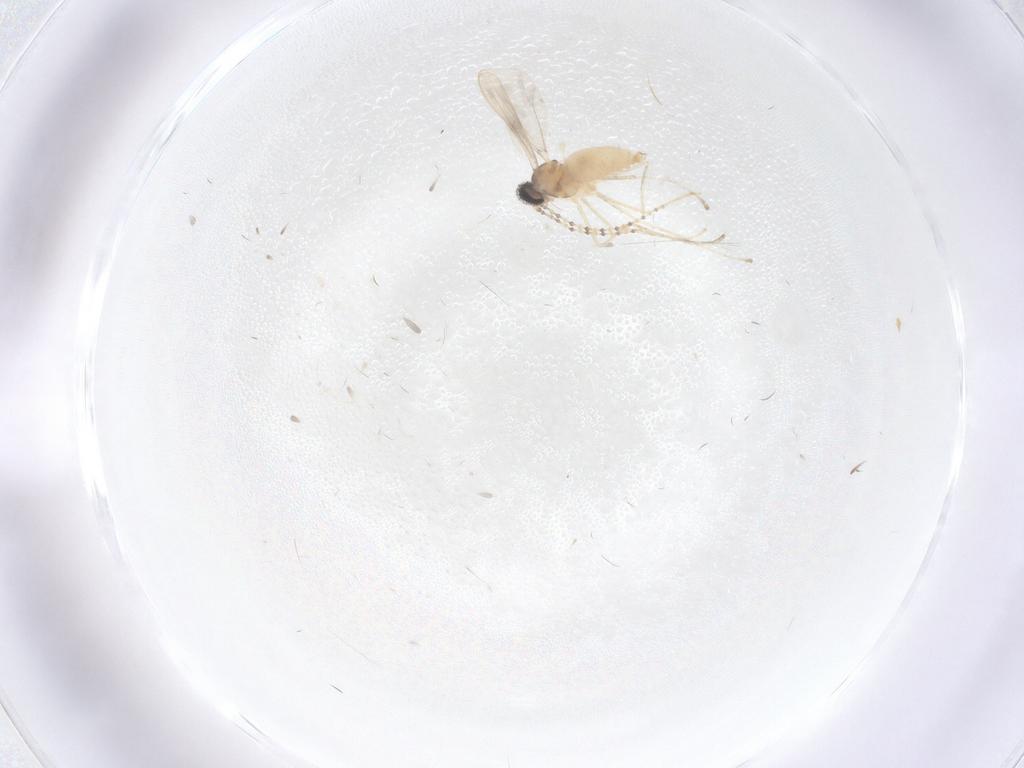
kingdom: Animalia
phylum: Arthropoda
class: Insecta
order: Diptera
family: Cecidomyiidae
